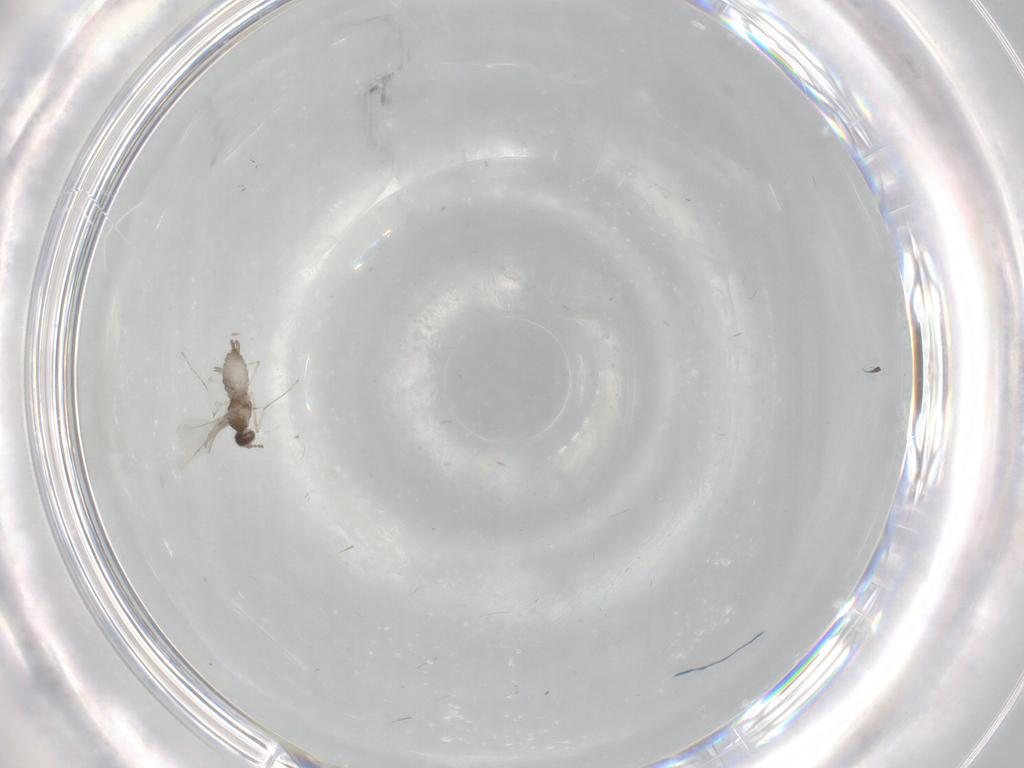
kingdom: Animalia
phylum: Arthropoda
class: Insecta
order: Diptera
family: Cecidomyiidae
